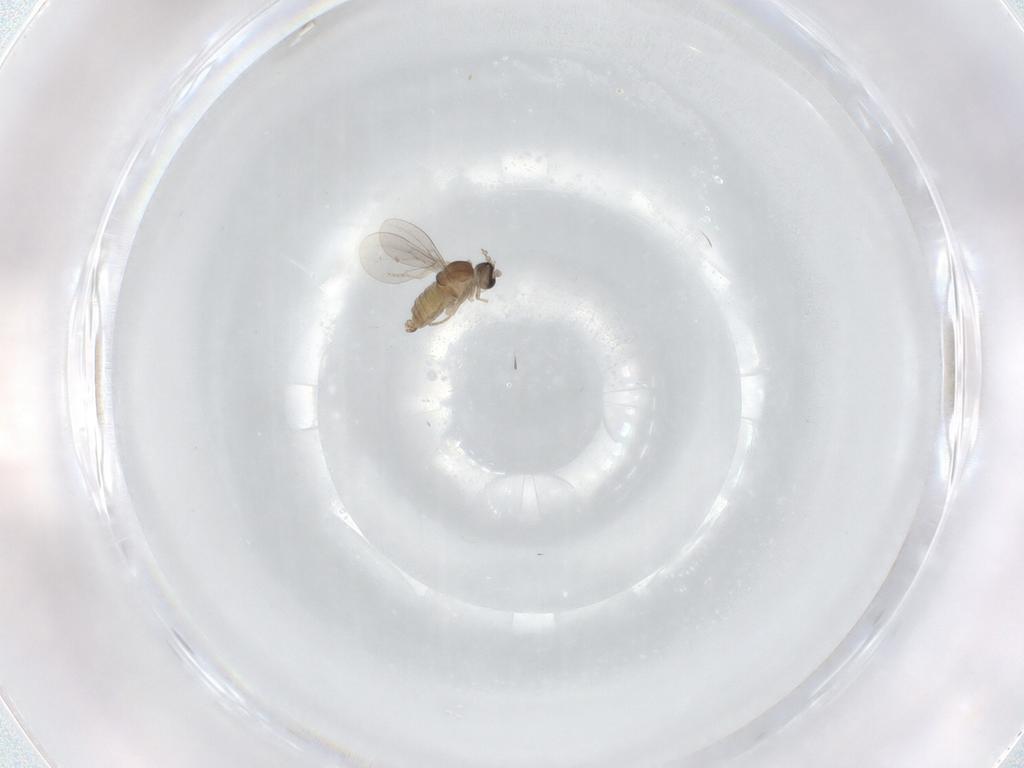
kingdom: Animalia
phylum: Arthropoda
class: Insecta
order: Diptera
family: Cecidomyiidae
